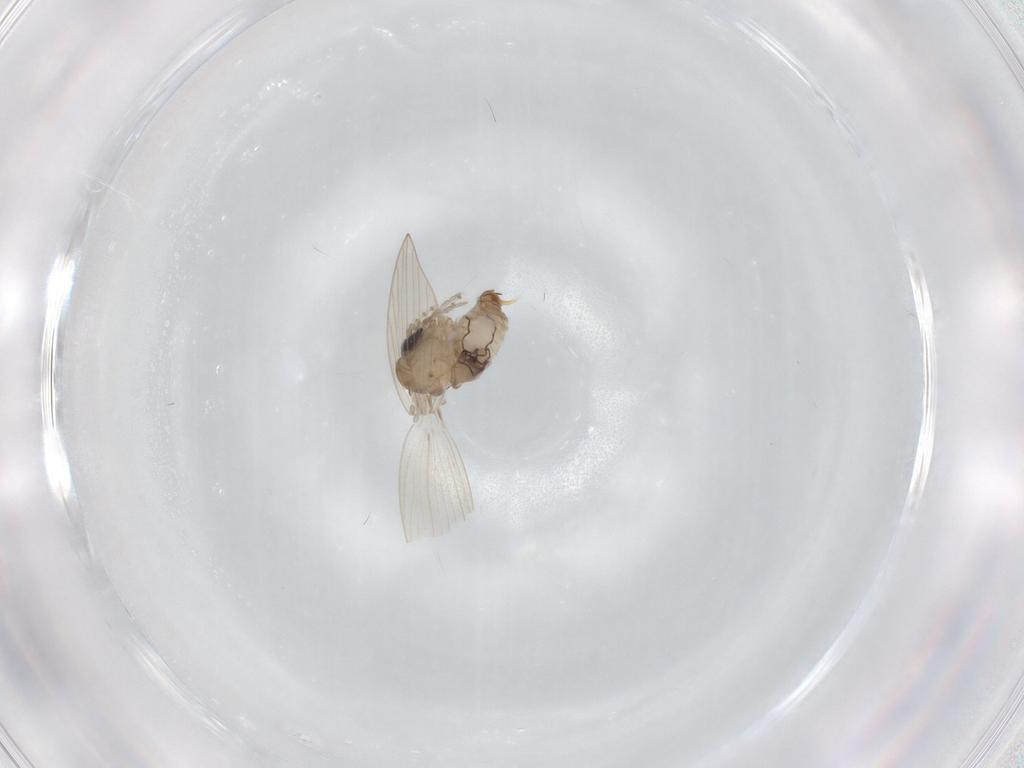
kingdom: Animalia
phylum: Arthropoda
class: Insecta
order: Diptera
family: Psychodidae
